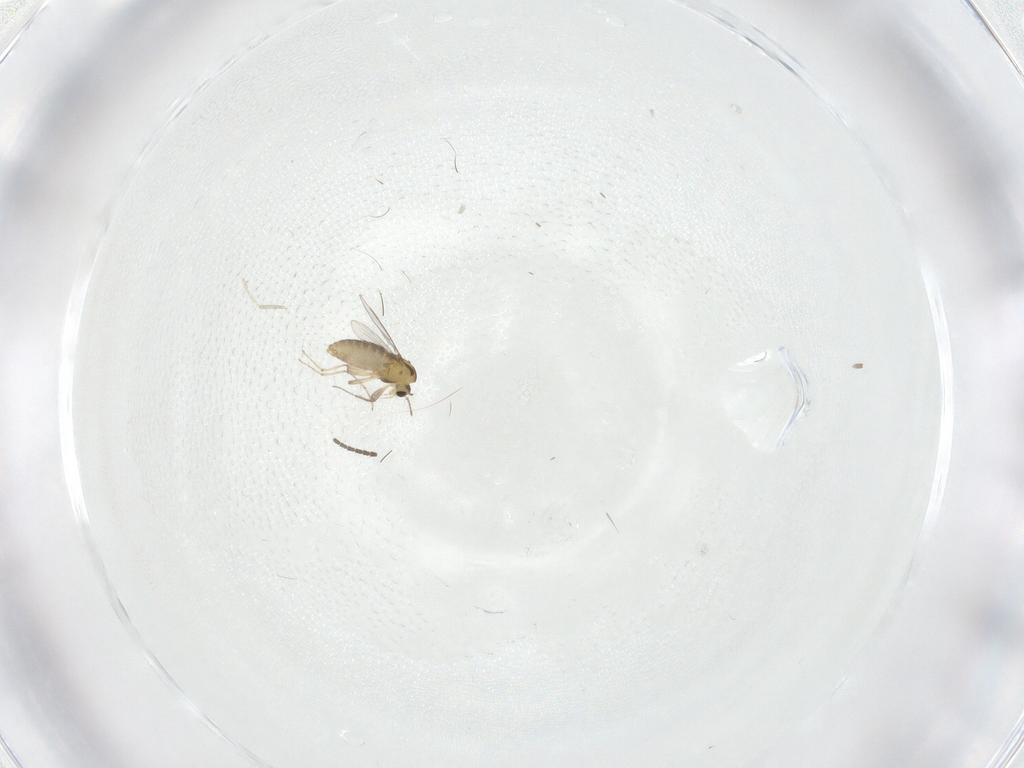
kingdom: Animalia
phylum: Arthropoda
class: Insecta
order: Diptera
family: Chironomidae
